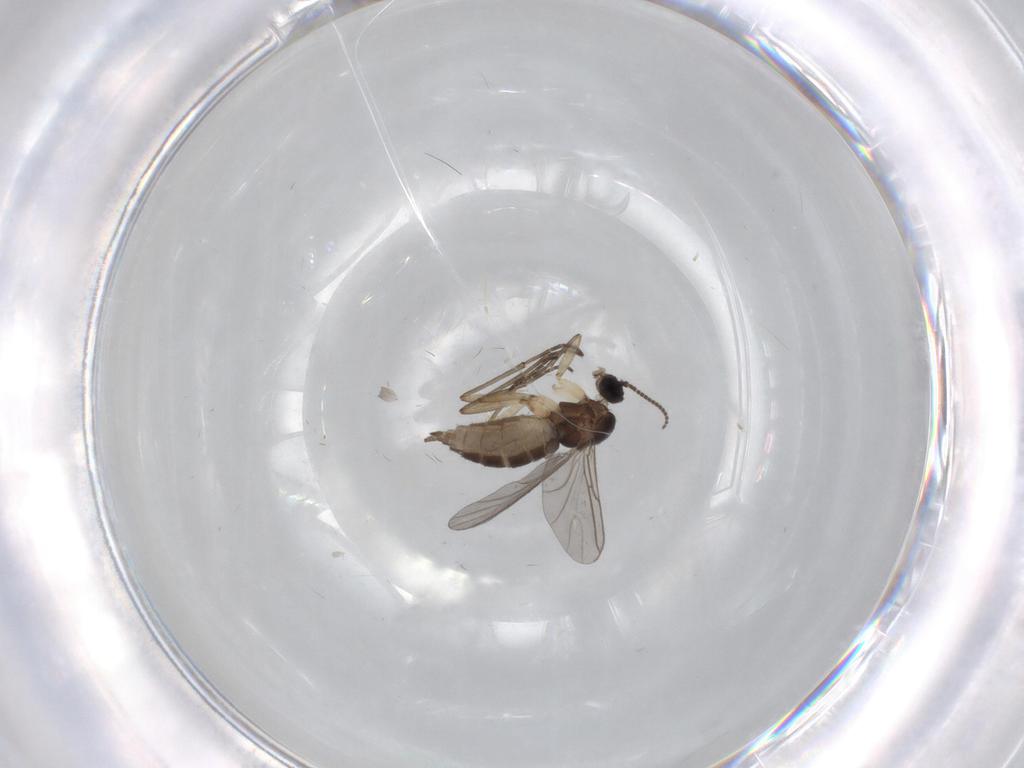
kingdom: Animalia
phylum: Arthropoda
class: Insecta
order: Diptera
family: Sciaridae
